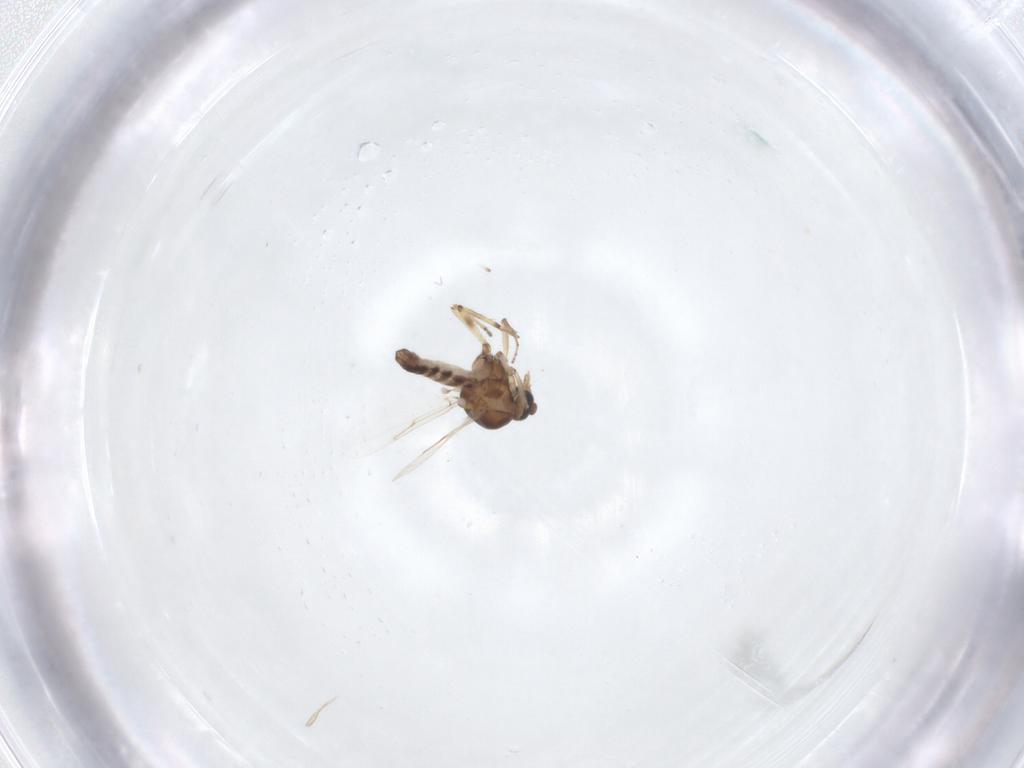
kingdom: Animalia
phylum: Arthropoda
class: Insecta
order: Diptera
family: Ceratopogonidae
